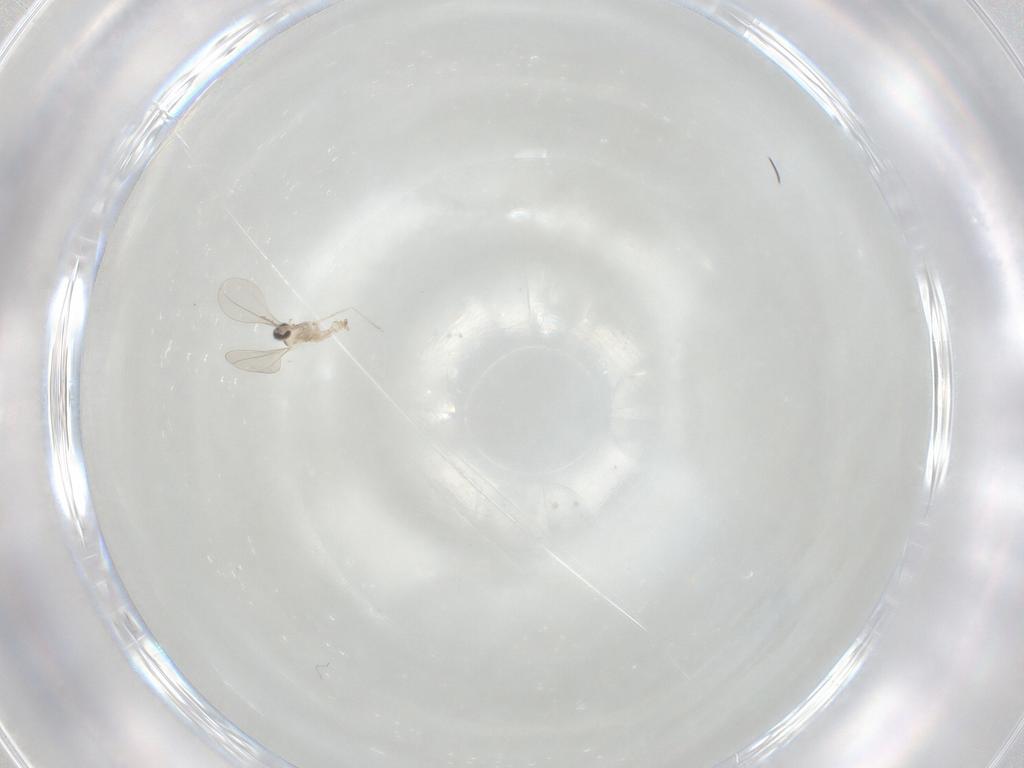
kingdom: Animalia
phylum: Arthropoda
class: Insecta
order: Diptera
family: Cecidomyiidae
